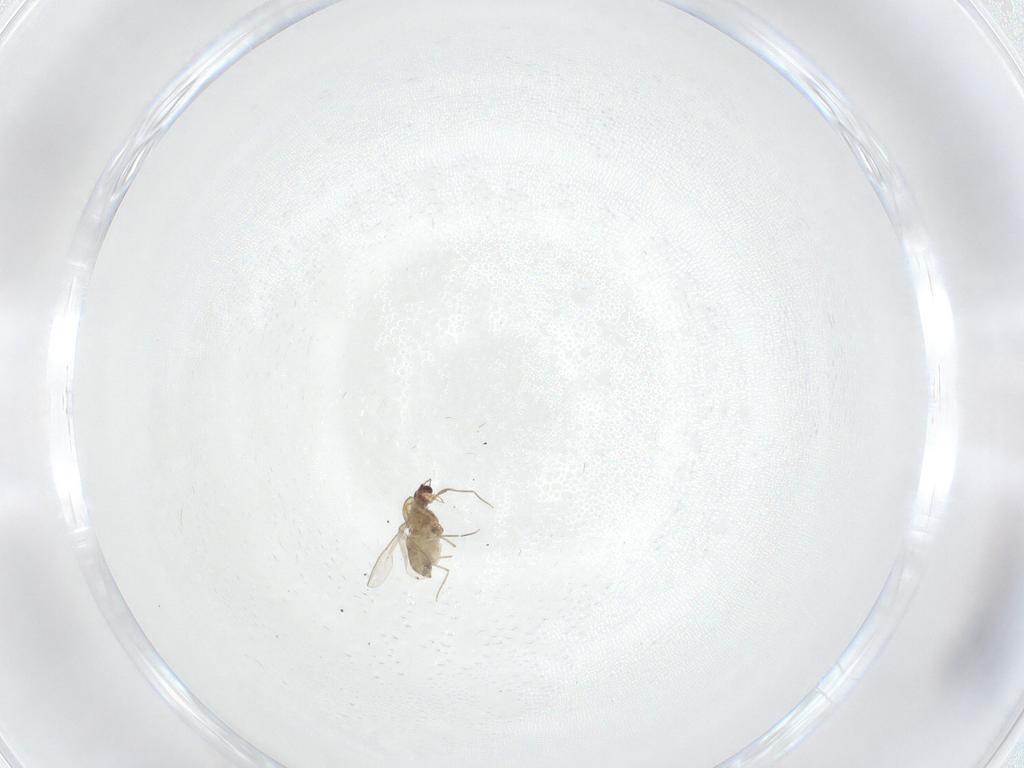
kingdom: Animalia
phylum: Arthropoda
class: Insecta
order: Diptera
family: Chironomidae
